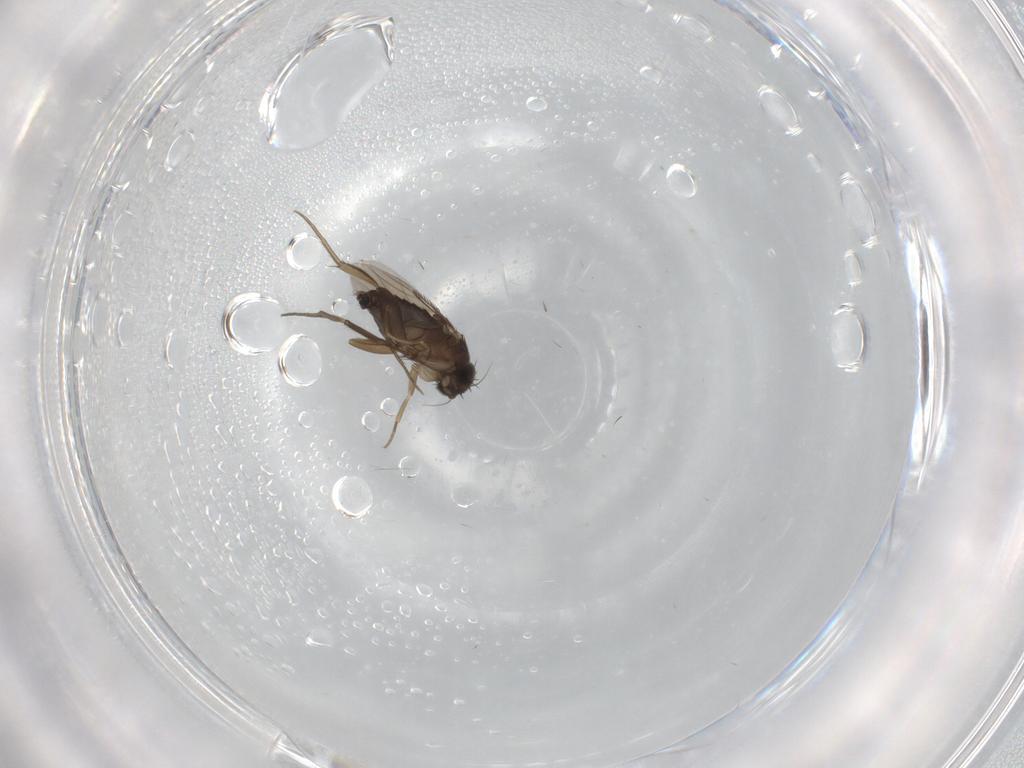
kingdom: Animalia
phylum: Arthropoda
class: Insecta
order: Diptera
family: Phoridae
